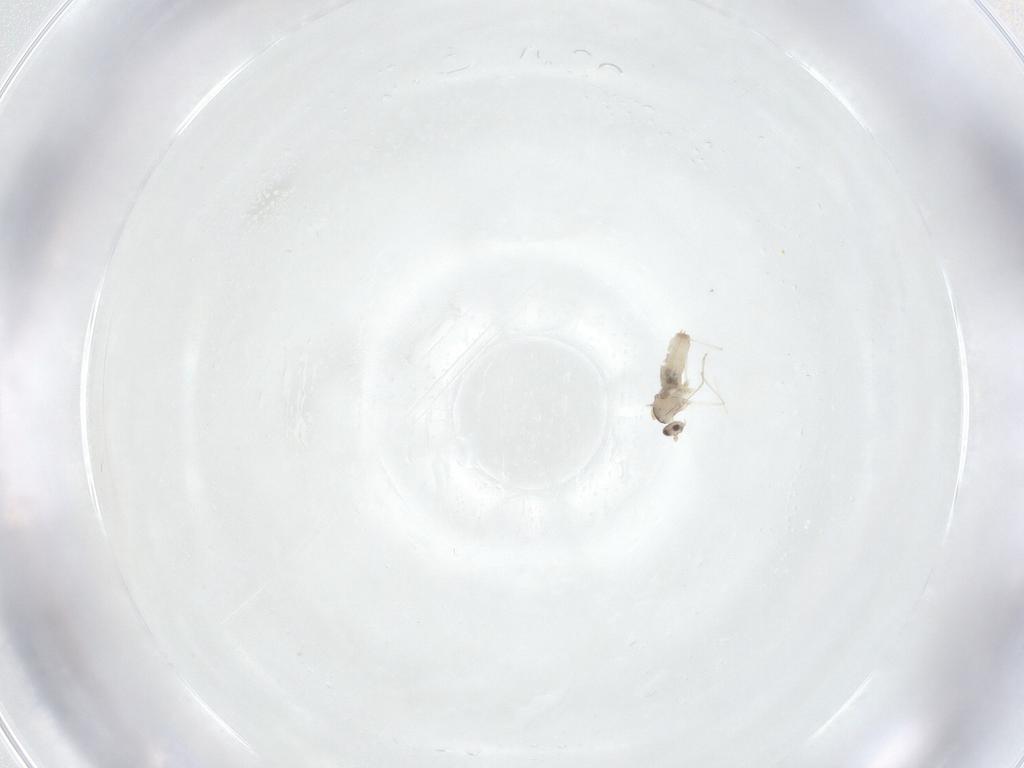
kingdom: Animalia
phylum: Arthropoda
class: Insecta
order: Diptera
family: Cecidomyiidae
